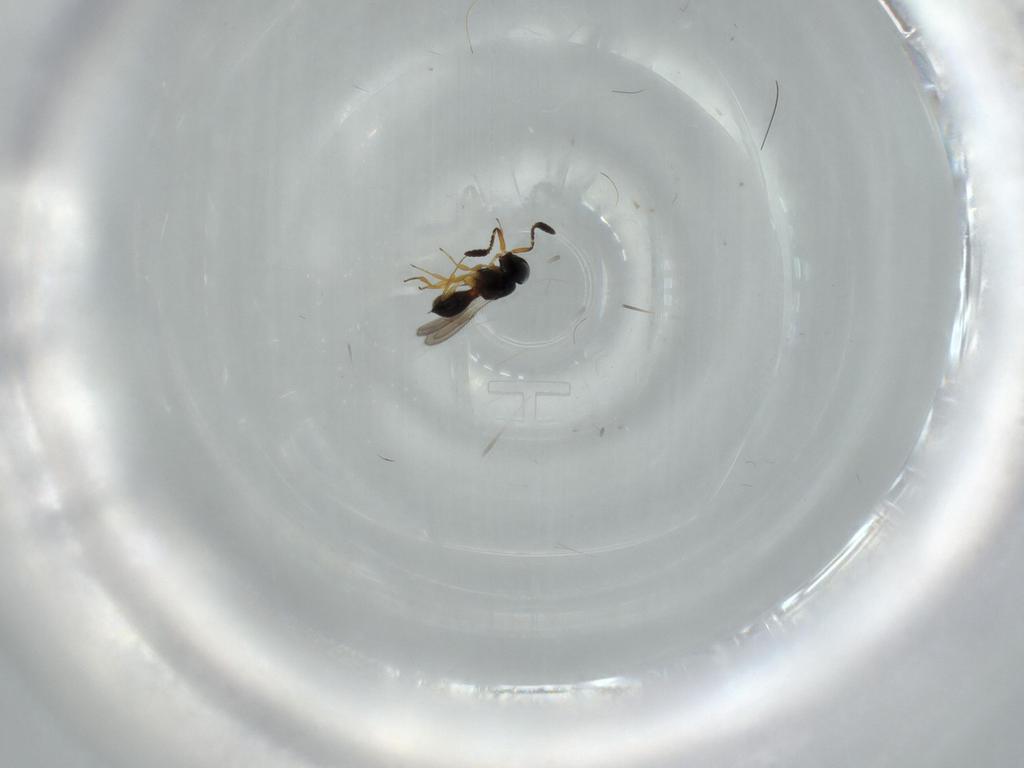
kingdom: Animalia
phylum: Arthropoda
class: Insecta
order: Hymenoptera
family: Scelionidae
